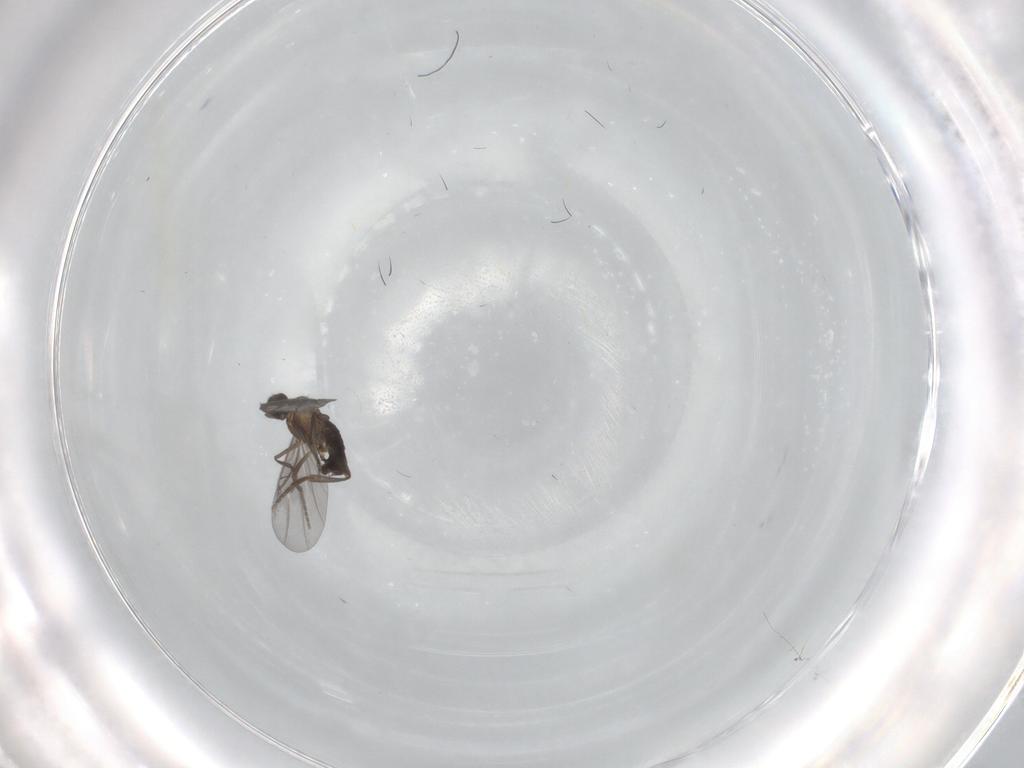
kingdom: Animalia
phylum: Arthropoda
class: Insecta
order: Diptera
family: Phoridae
